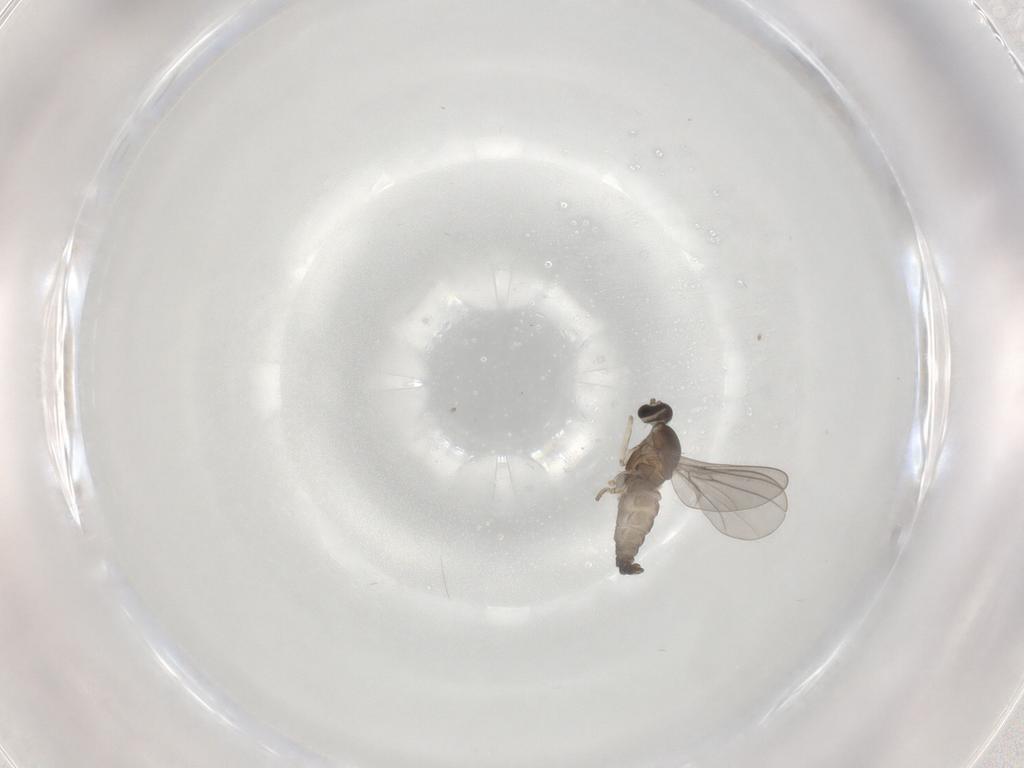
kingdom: Animalia
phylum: Arthropoda
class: Insecta
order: Diptera
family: Cecidomyiidae
